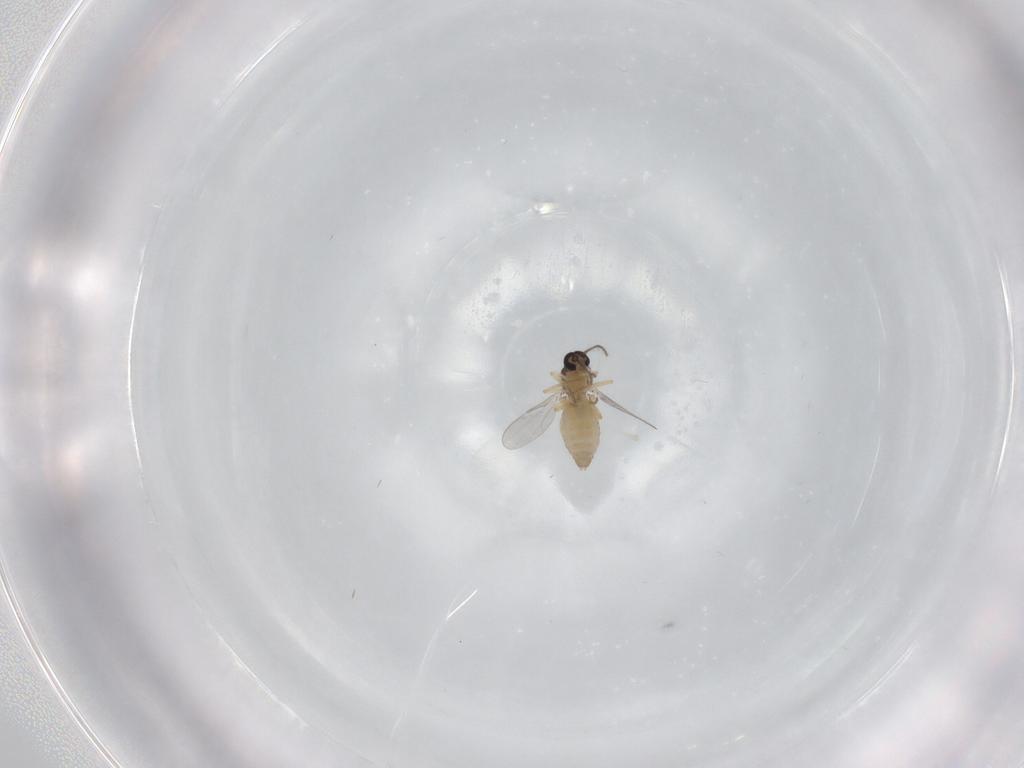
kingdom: Animalia
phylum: Arthropoda
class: Insecta
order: Diptera
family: Ceratopogonidae
